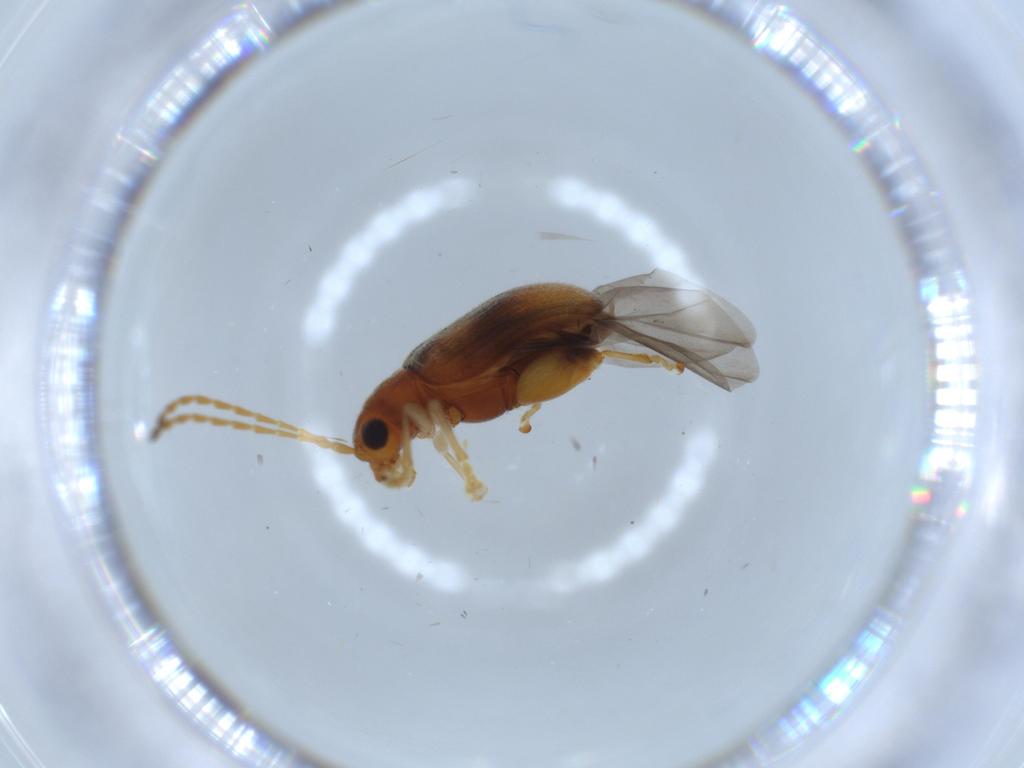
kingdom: Animalia
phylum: Arthropoda
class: Insecta
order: Coleoptera
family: Chrysomelidae
